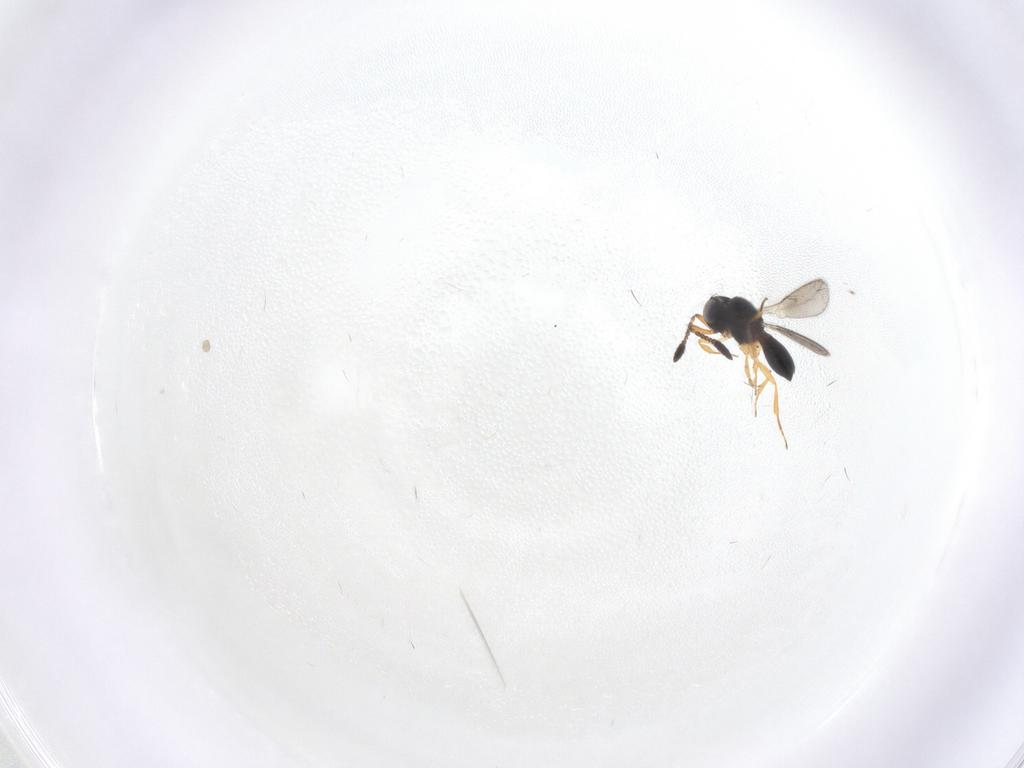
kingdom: Animalia
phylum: Arthropoda
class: Insecta
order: Hymenoptera
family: Scelionidae
